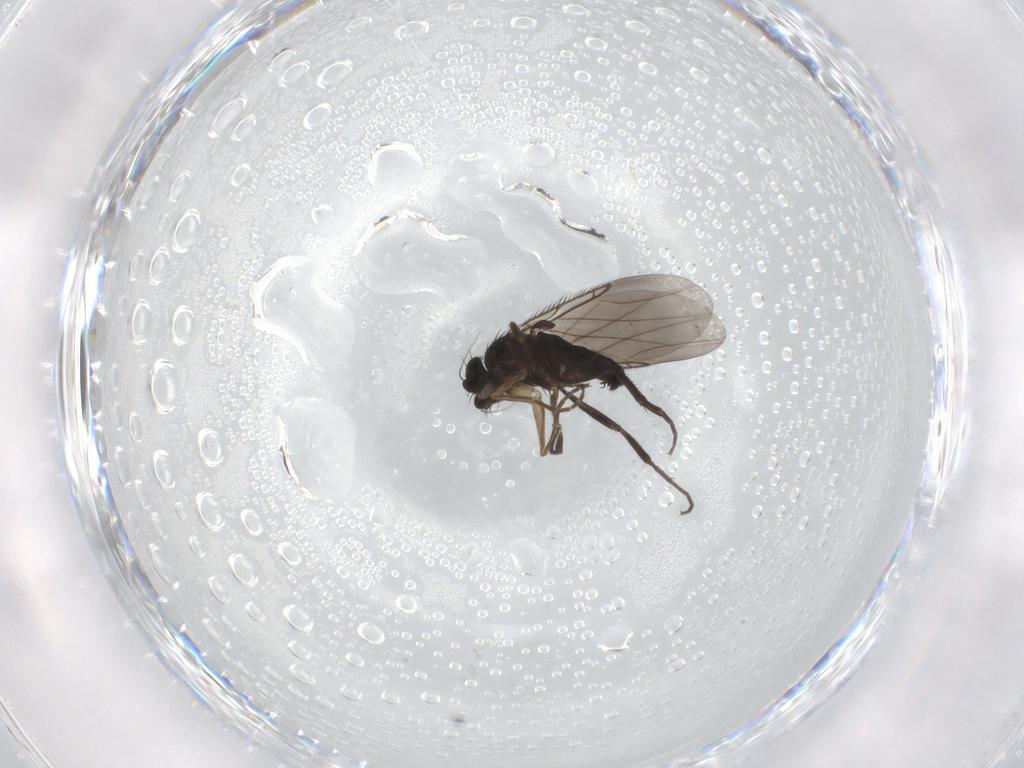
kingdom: Animalia
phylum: Arthropoda
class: Insecta
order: Diptera
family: Phoridae
